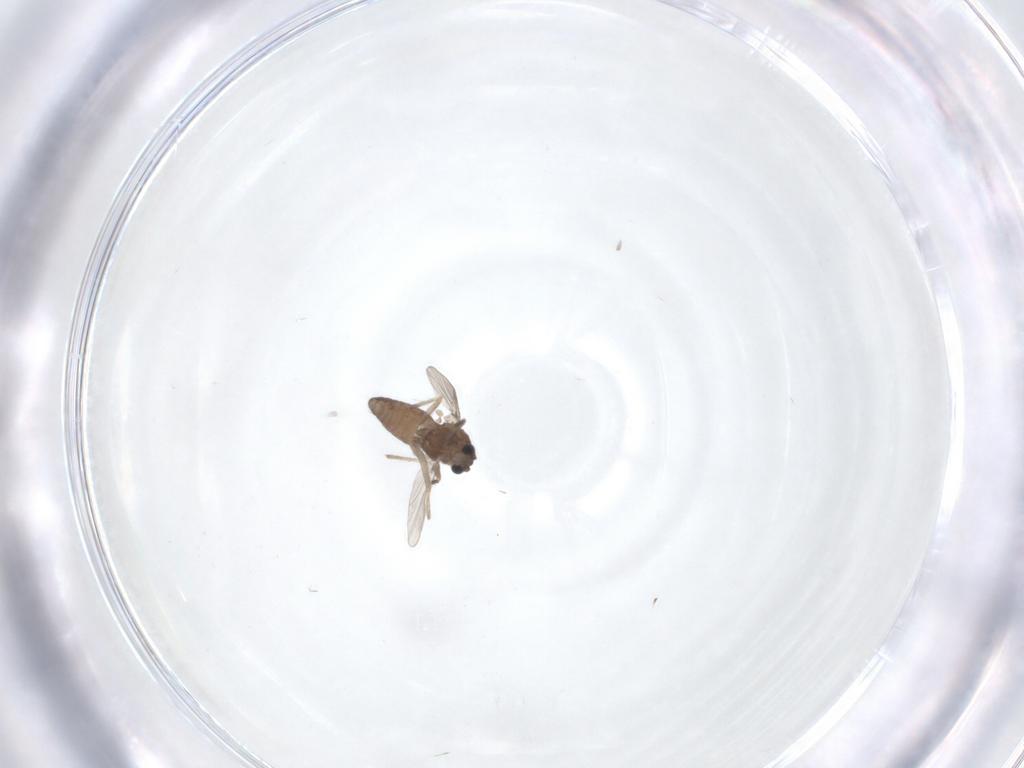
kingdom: Animalia
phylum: Arthropoda
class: Insecta
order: Diptera
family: Chironomidae
